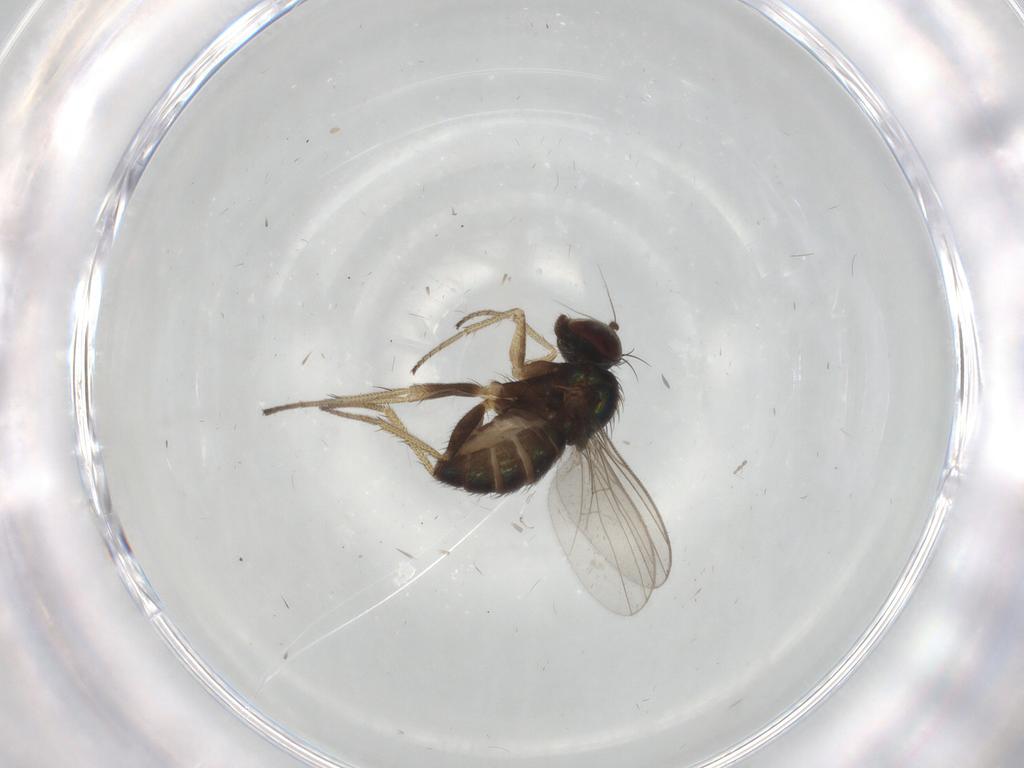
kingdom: Animalia
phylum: Arthropoda
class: Insecta
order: Diptera
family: Dolichopodidae
